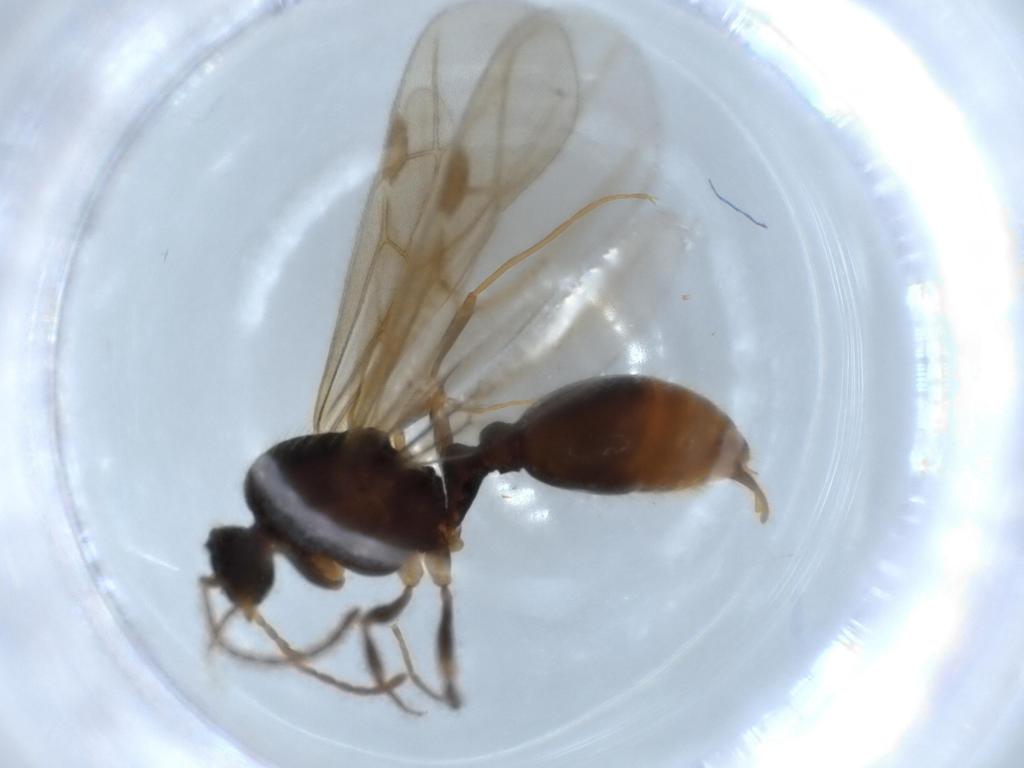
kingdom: Animalia
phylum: Arthropoda
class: Insecta
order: Hymenoptera
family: Formicidae
